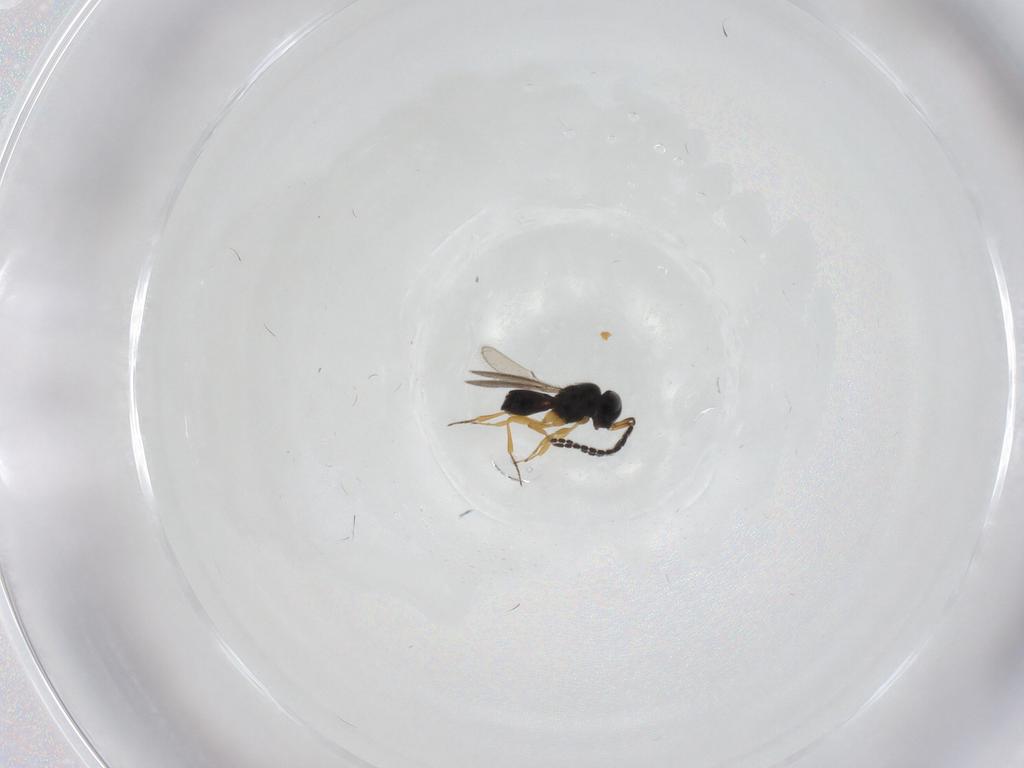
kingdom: Animalia
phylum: Arthropoda
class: Insecta
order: Hymenoptera
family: Scelionidae
